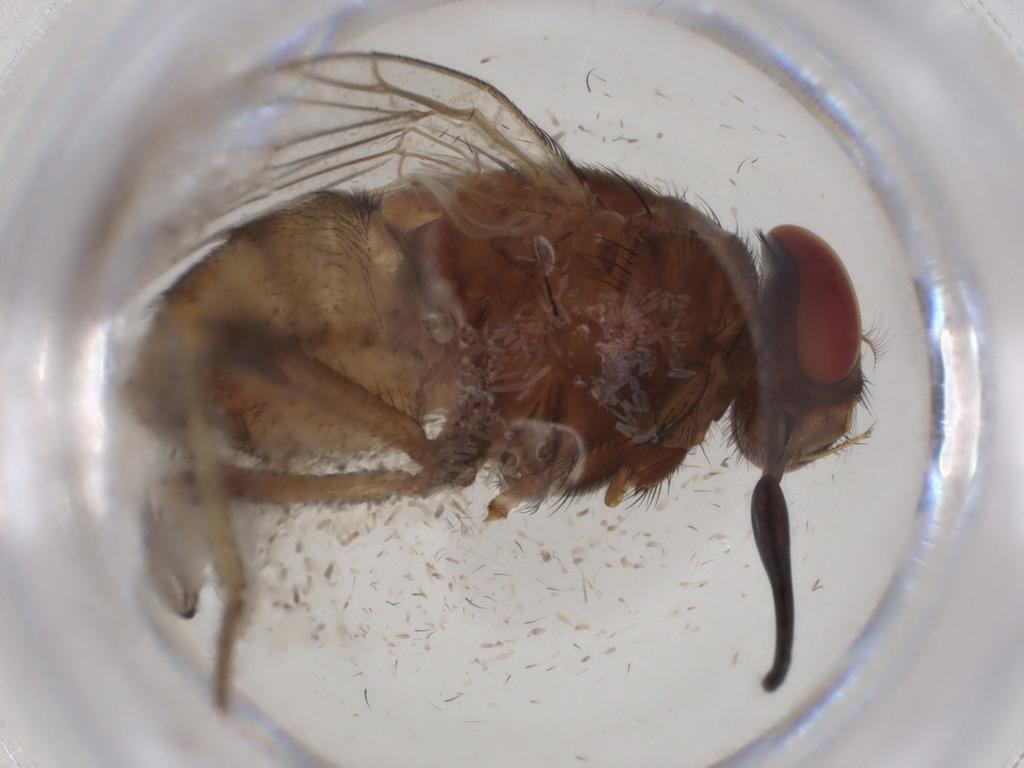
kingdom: Animalia
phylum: Arthropoda
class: Insecta
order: Diptera
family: Muscidae
